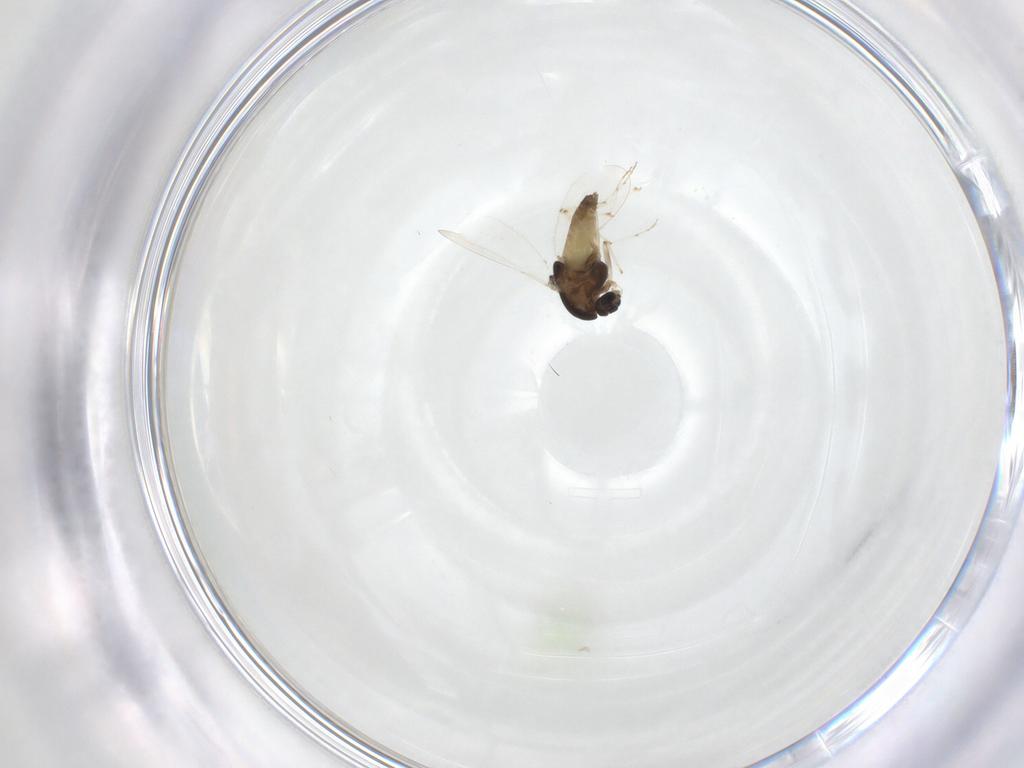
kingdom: Animalia
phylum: Arthropoda
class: Insecta
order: Diptera
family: Chironomidae
